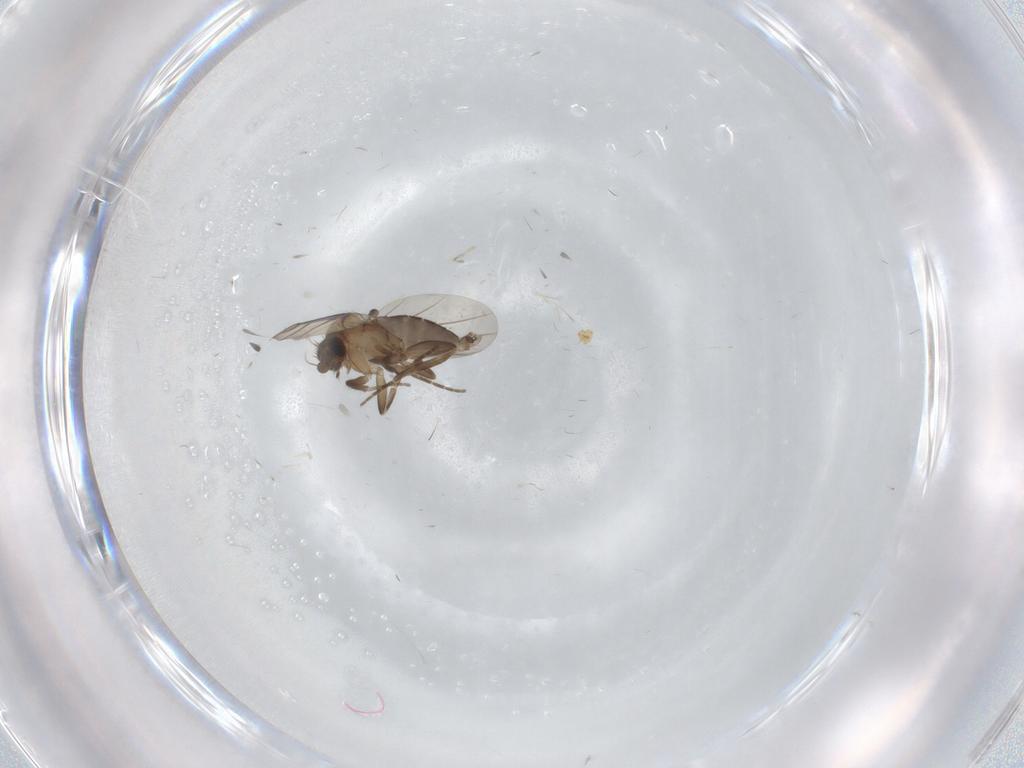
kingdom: Animalia
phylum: Arthropoda
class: Insecta
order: Diptera
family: Phoridae
